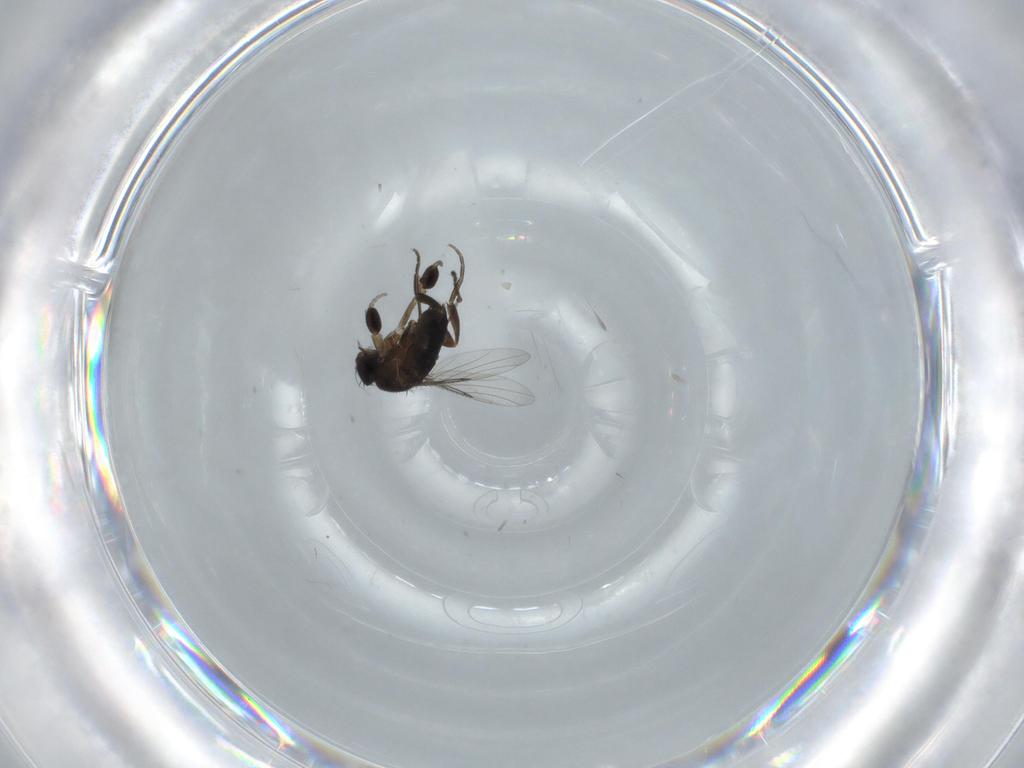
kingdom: Animalia
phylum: Arthropoda
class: Insecta
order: Diptera
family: Phoridae
